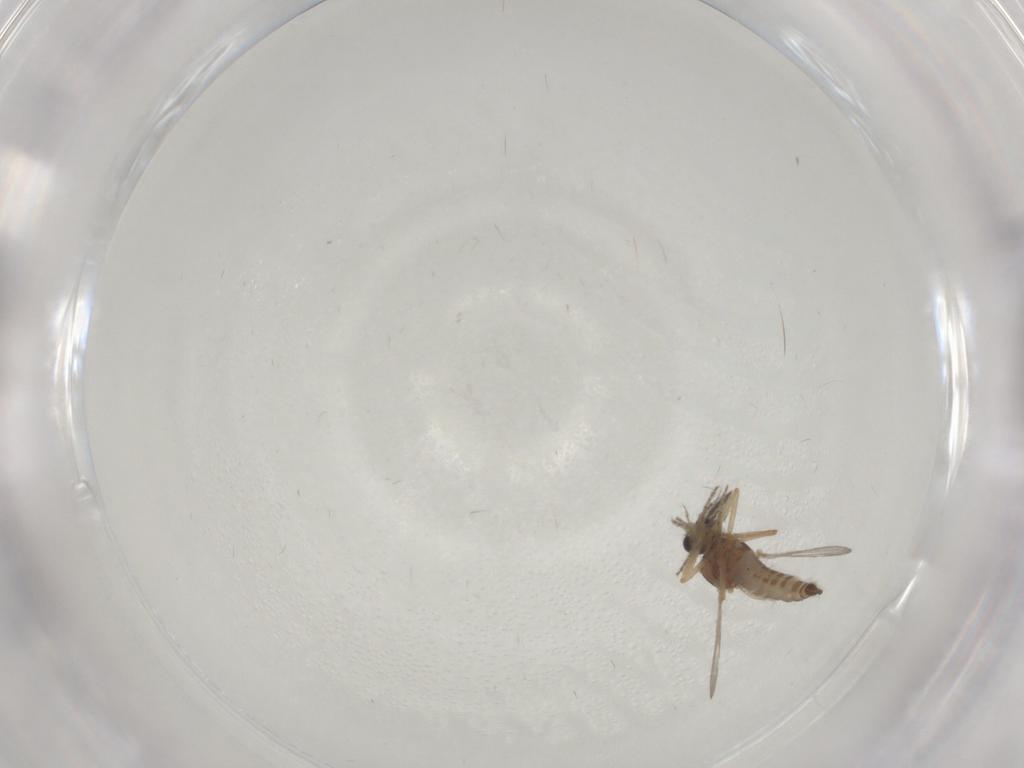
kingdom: Animalia
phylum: Arthropoda
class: Insecta
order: Diptera
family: Ceratopogonidae
